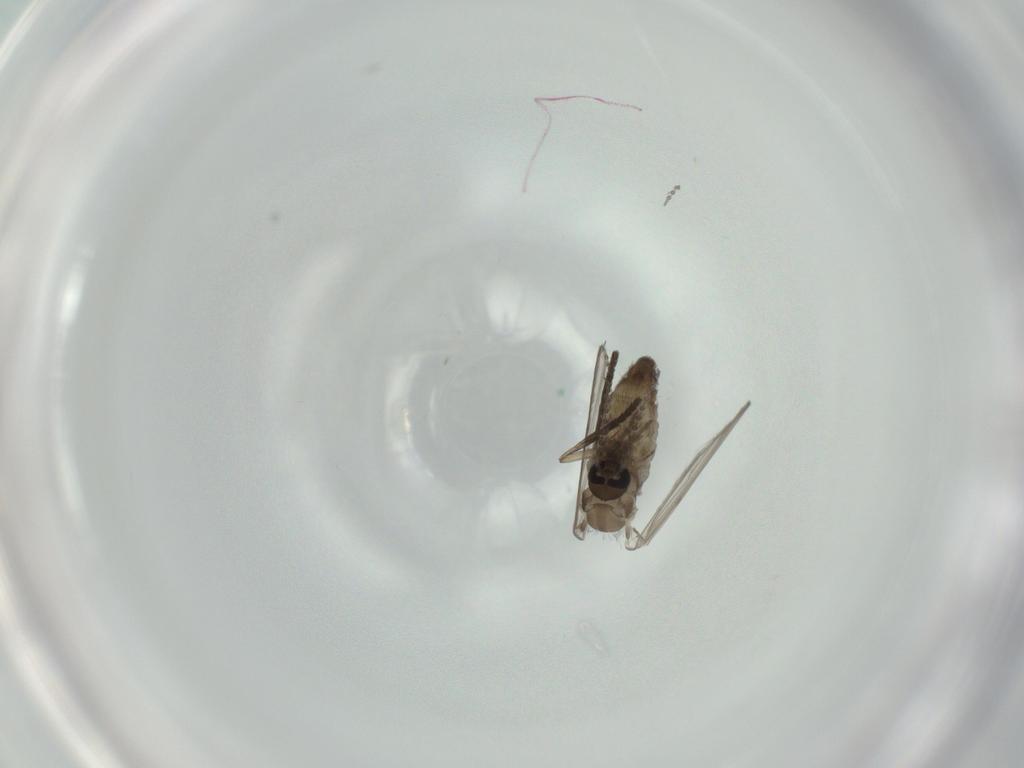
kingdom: Animalia
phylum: Arthropoda
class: Insecta
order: Diptera
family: Psychodidae
